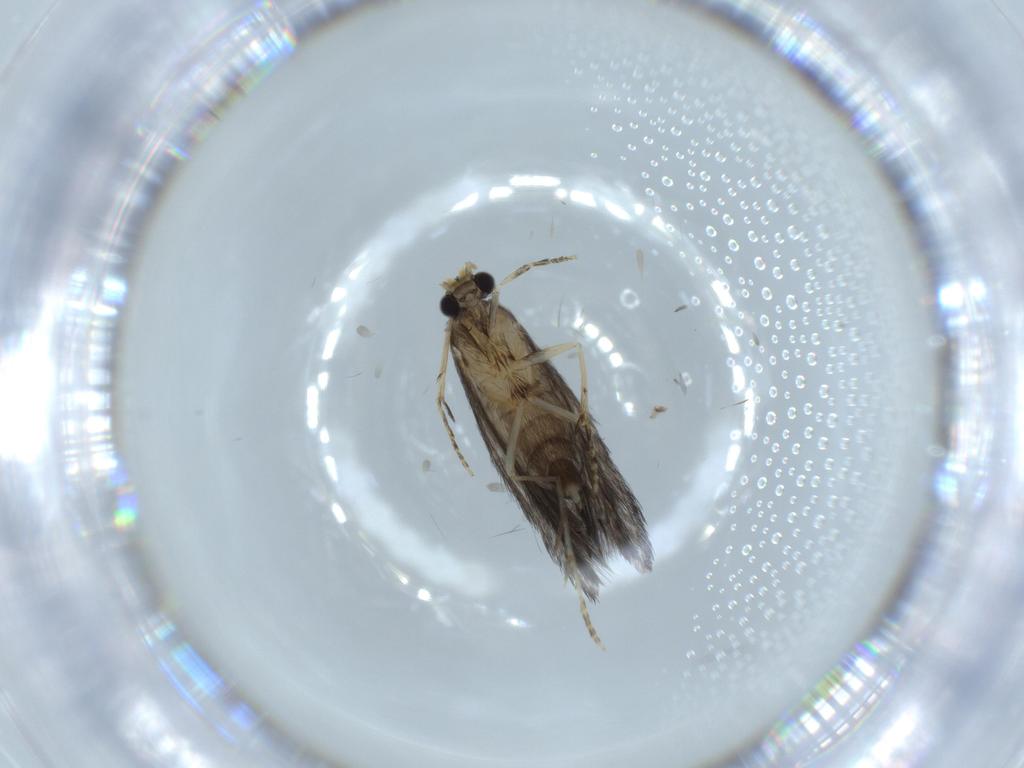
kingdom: Animalia
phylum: Arthropoda
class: Insecta
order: Trichoptera
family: Hydroptilidae
